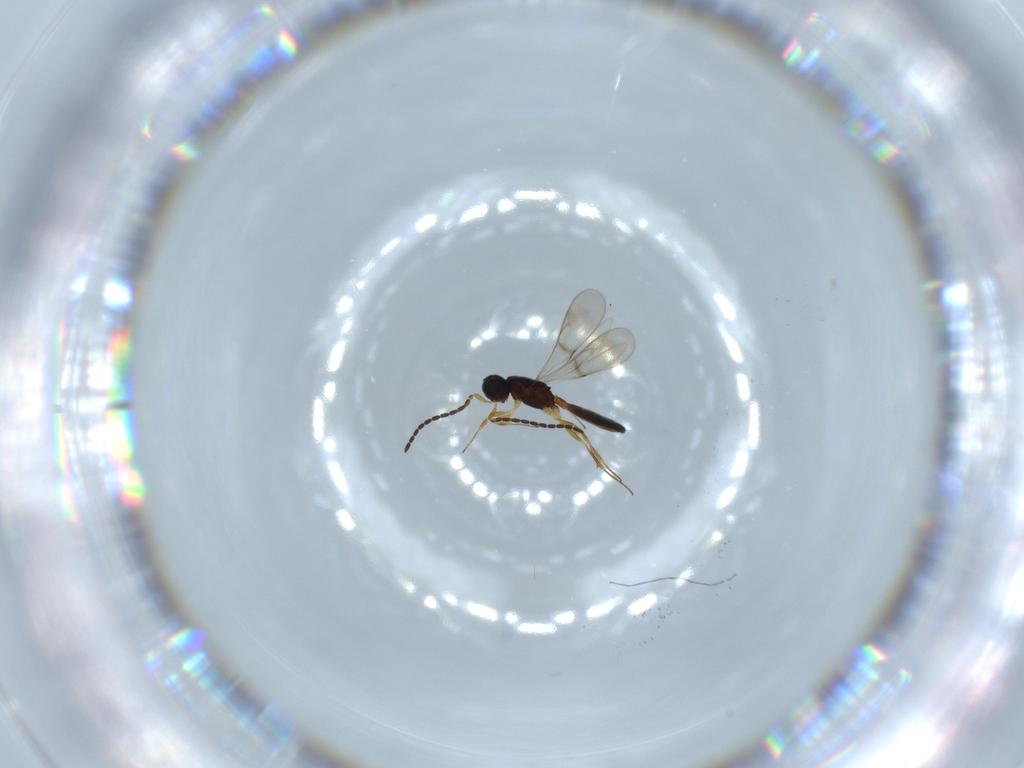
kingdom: Animalia
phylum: Arthropoda
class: Insecta
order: Hymenoptera
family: Scelionidae
